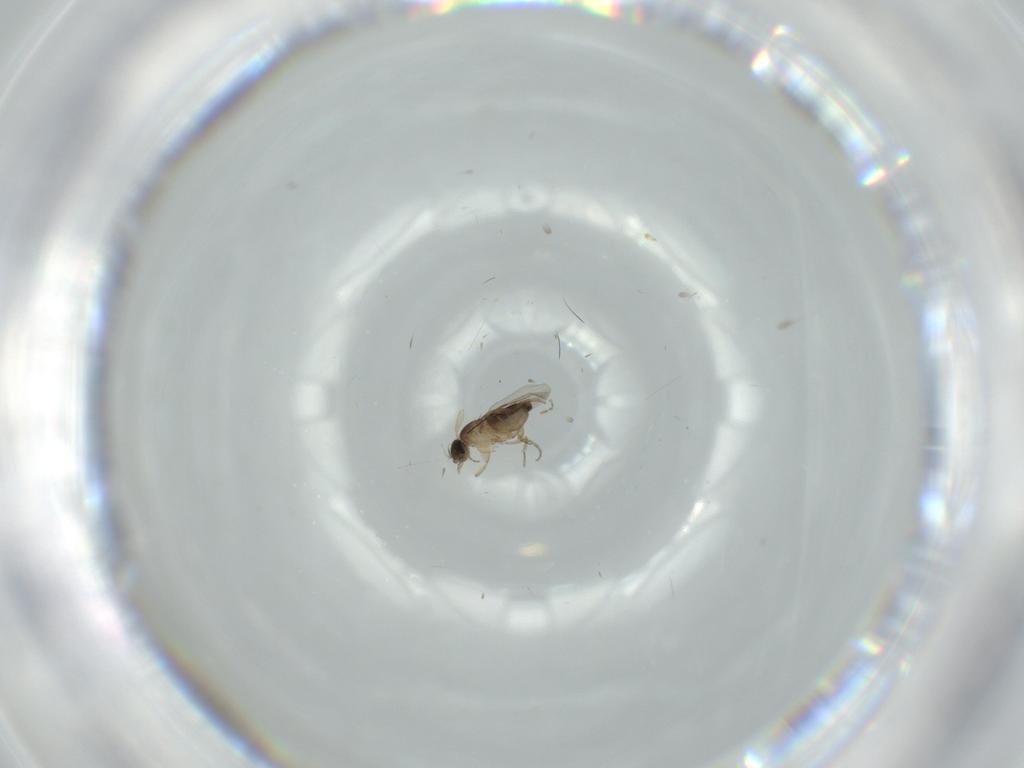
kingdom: Animalia
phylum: Arthropoda
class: Insecta
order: Diptera
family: Phoridae
